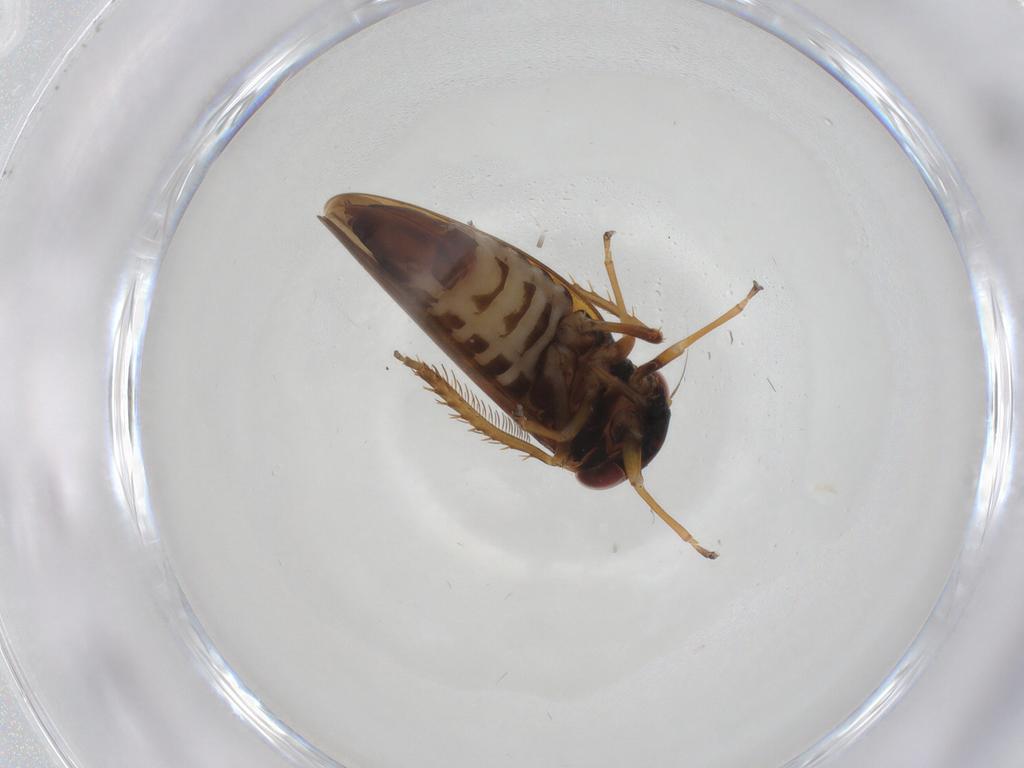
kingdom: Animalia
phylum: Arthropoda
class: Insecta
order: Hemiptera
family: Cicadellidae
